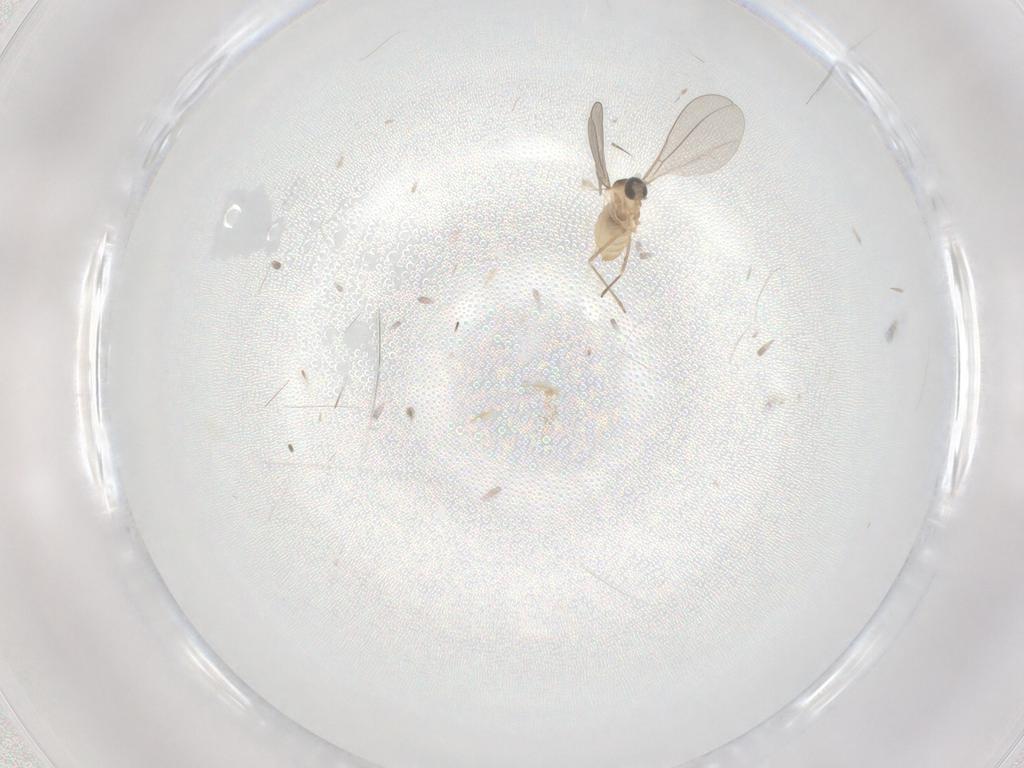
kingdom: Animalia
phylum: Arthropoda
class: Insecta
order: Diptera
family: Cecidomyiidae
